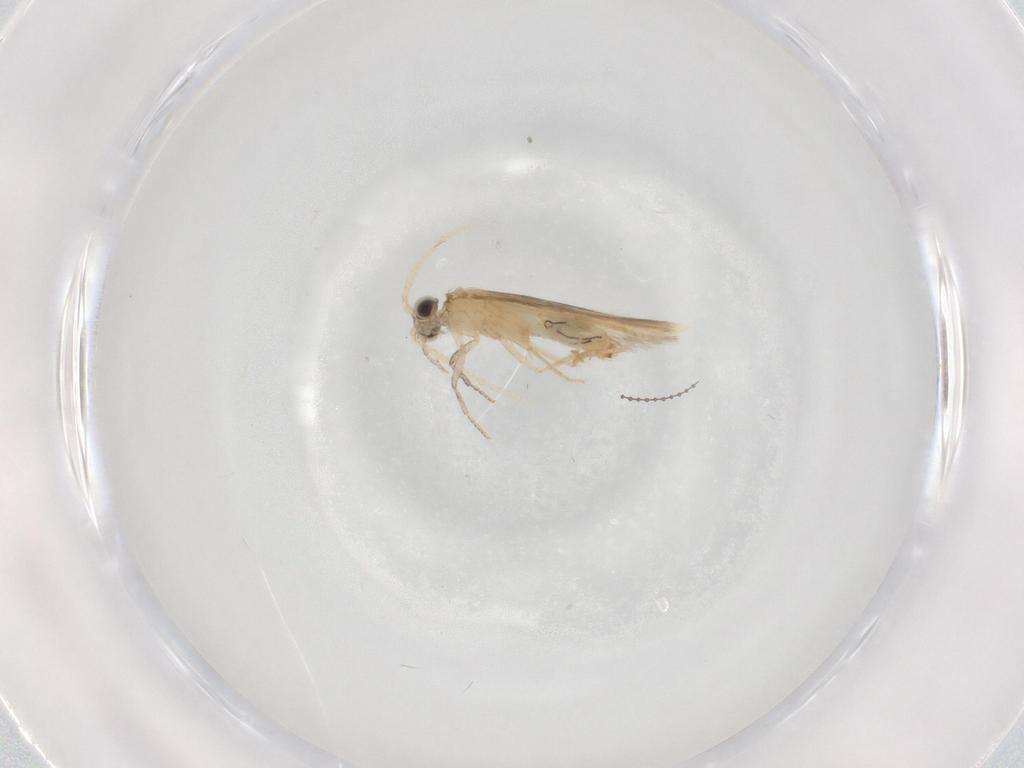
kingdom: Animalia
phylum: Arthropoda
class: Insecta
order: Trichoptera
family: Hydroptilidae
